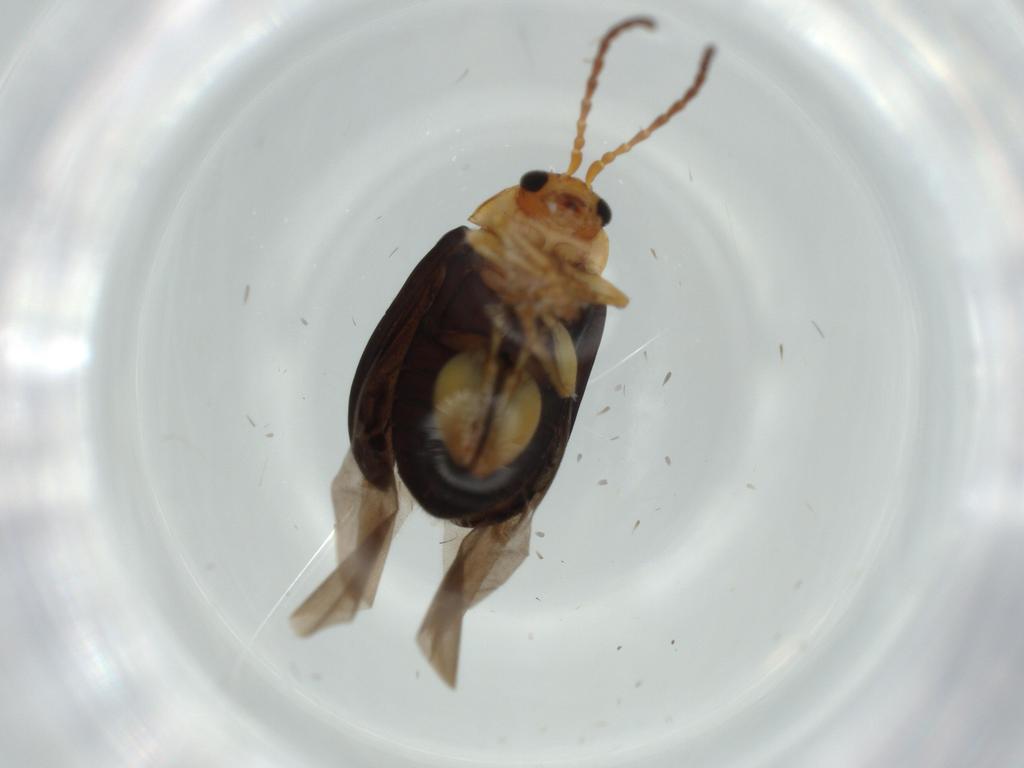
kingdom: Animalia
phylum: Arthropoda
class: Insecta
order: Coleoptera
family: Chrysomelidae
